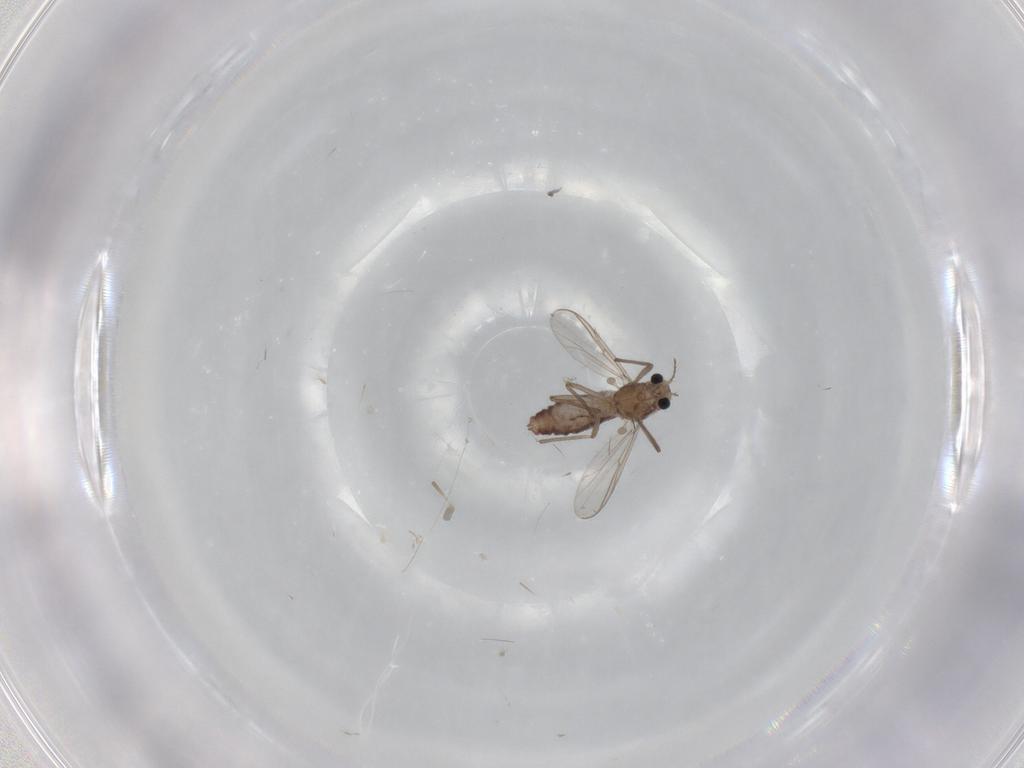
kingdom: Animalia
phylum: Arthropoda
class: Insecta
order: Diptera
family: Chironomidae
